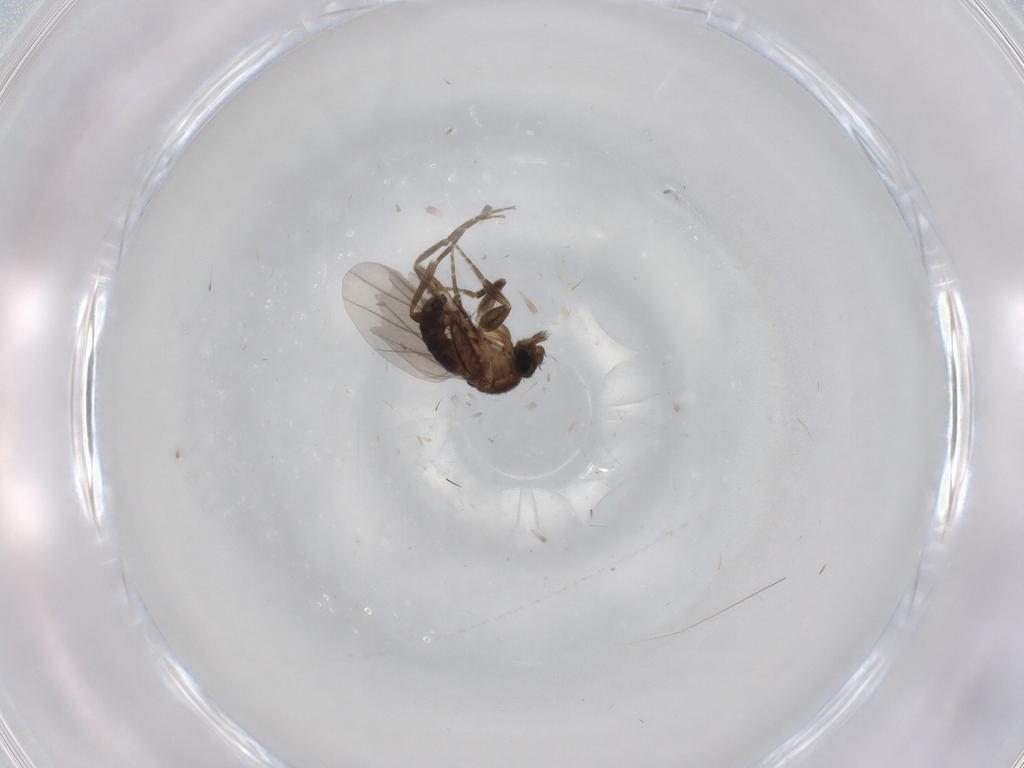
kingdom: Animalia
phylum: Arthropoda
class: Insecta
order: Diptera
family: Phoridae
